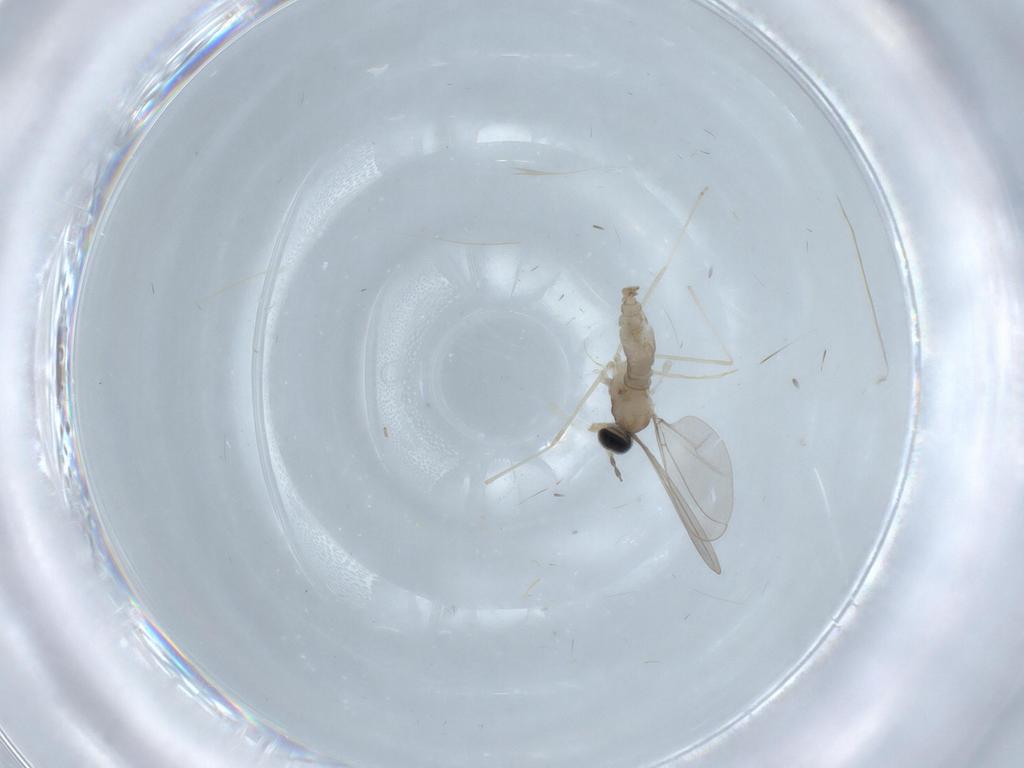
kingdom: Animalia
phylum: Arthropoda
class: Insecta
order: Diptera
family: Cecidomyiidae
